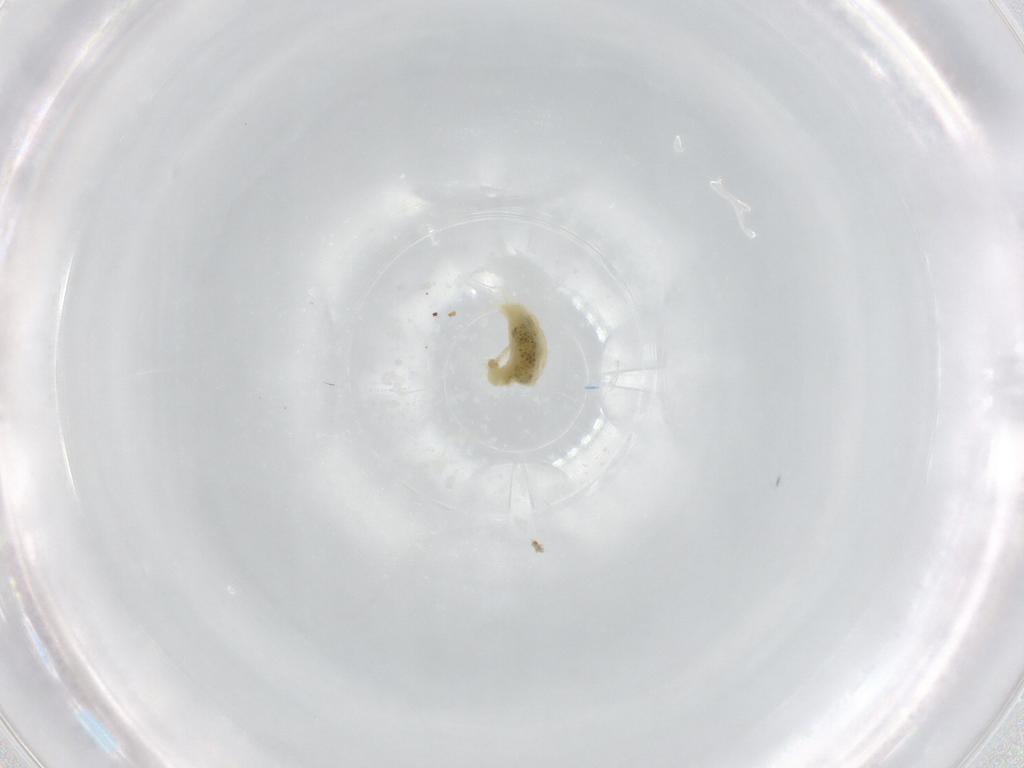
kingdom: Animalia
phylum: Arthropoda
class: Arachnida
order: Trombidiformes
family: Tetranychidae
